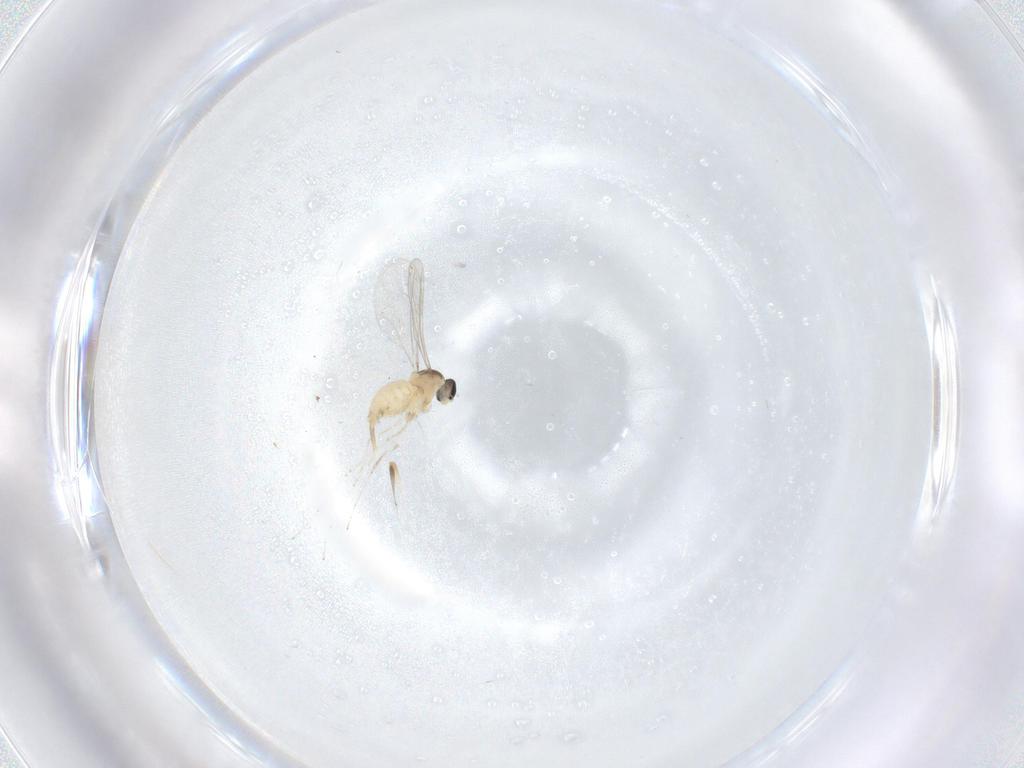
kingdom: Animalia
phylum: Arthropoda
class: Insecta
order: Diptera
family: Cecidomyiidae
